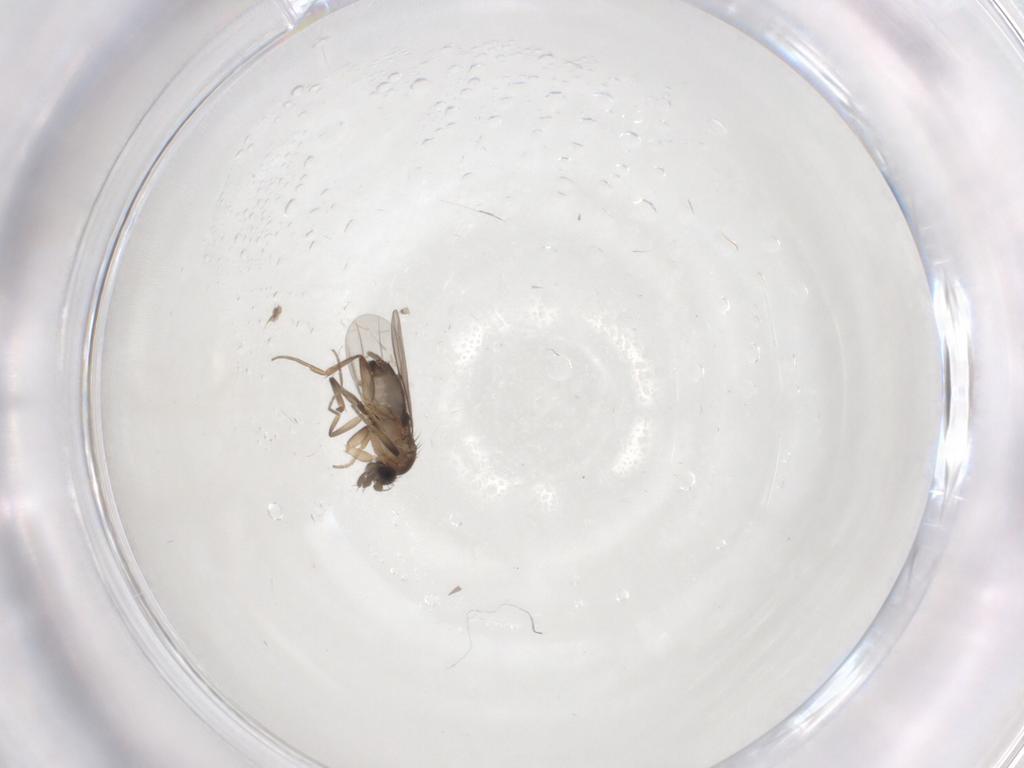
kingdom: Animalia
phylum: Arthropoda
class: Insecta
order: Diptera
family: Phoridae
